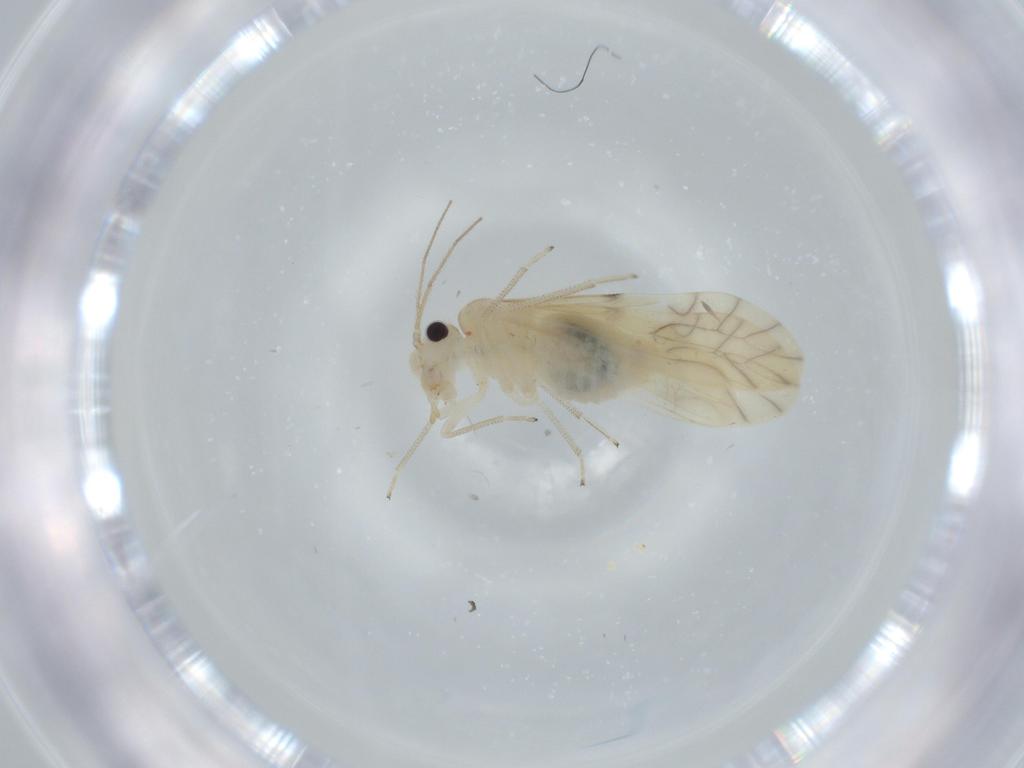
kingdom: Animalia
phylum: Arthropoda
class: Insecta
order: Psocodea
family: Caeciliusidae
